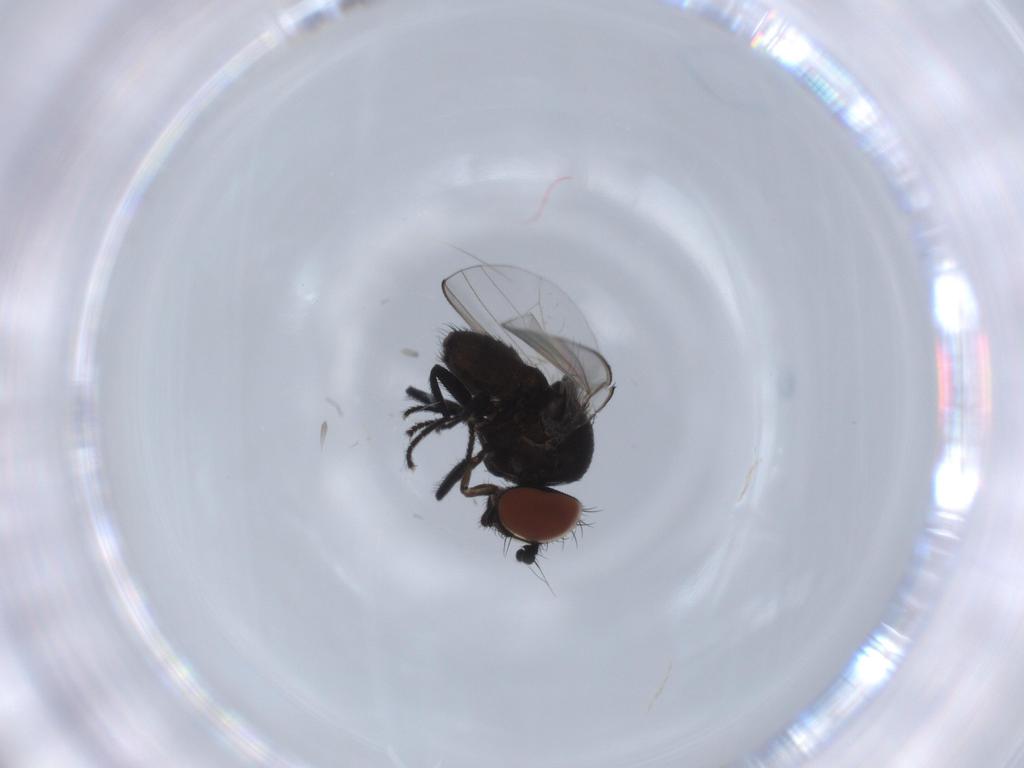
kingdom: Animalia
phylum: Arthropoda
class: Insecta
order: Diptera
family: Milichiidae
